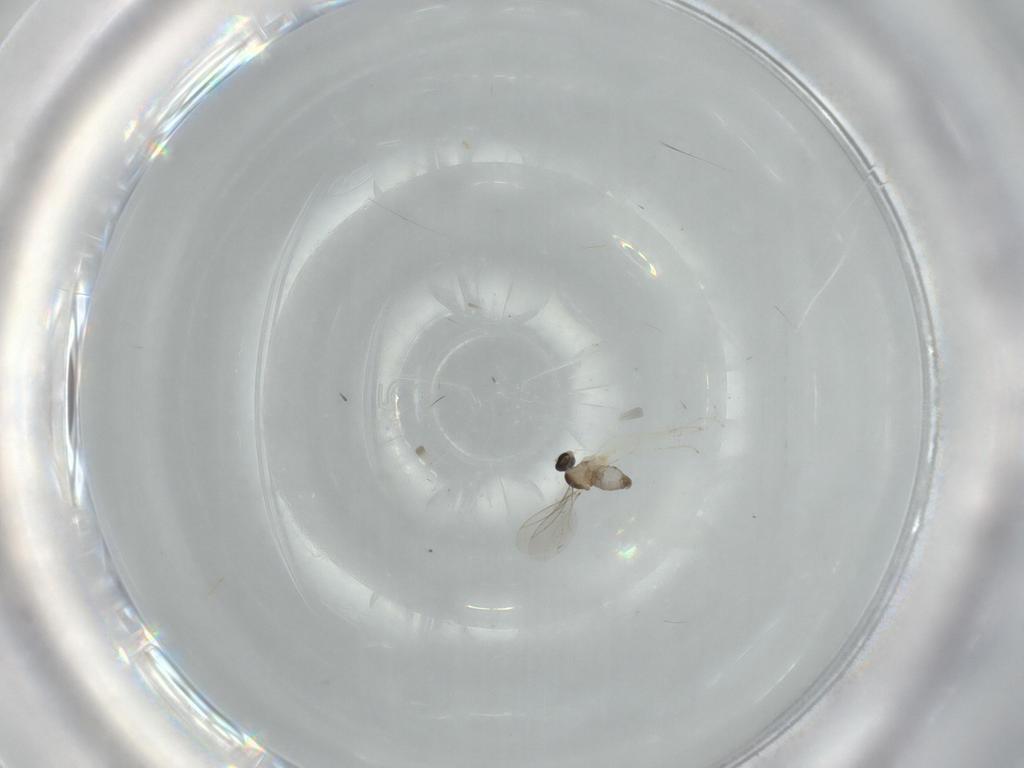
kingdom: Animalia
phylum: Arthropoda
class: Insecta
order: Diptera
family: Cecidomyiidae
